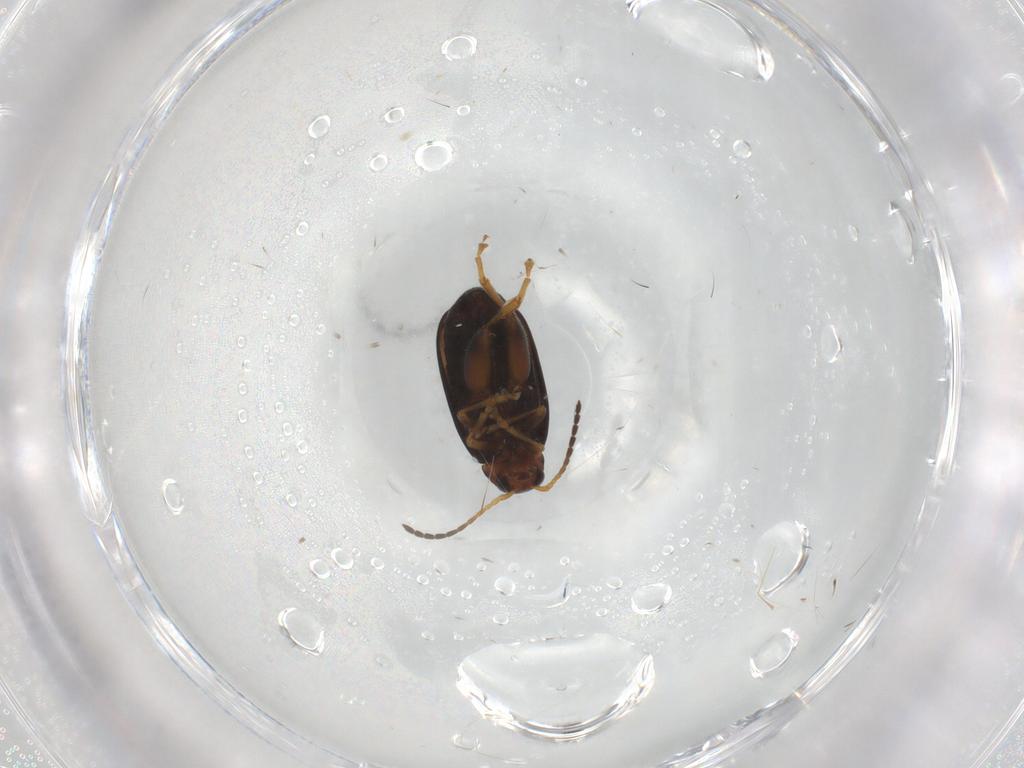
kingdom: Animalia
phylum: Arthropoda
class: Insecta
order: Coleoptera
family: Chrysomelidae
